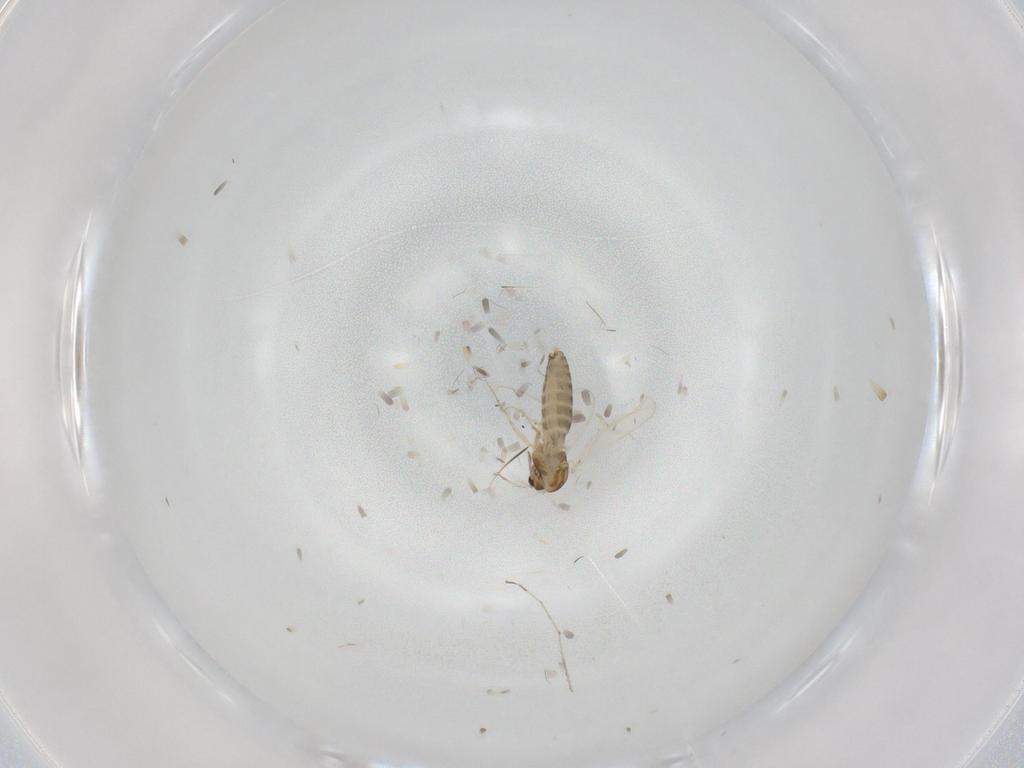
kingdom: Animalia
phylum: Arthropoda
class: Insecta
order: Diptera
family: Chironomidae
